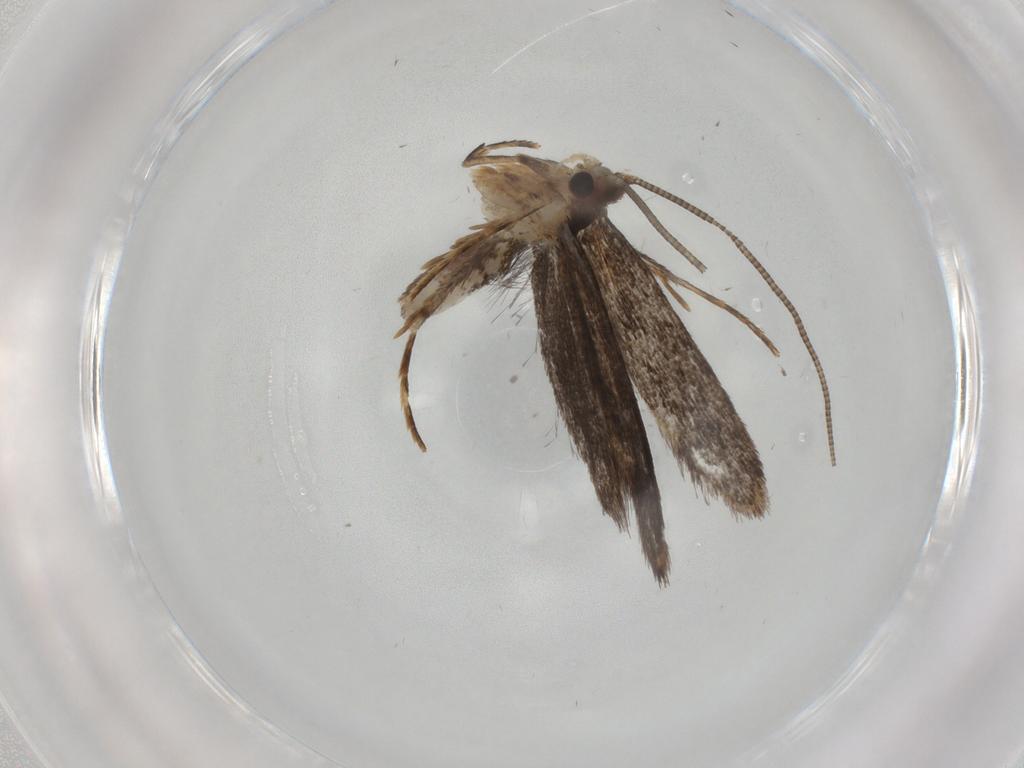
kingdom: Animalia
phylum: Arthropoda
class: Insecta
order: Lepidoptera
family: Nepticulidae
